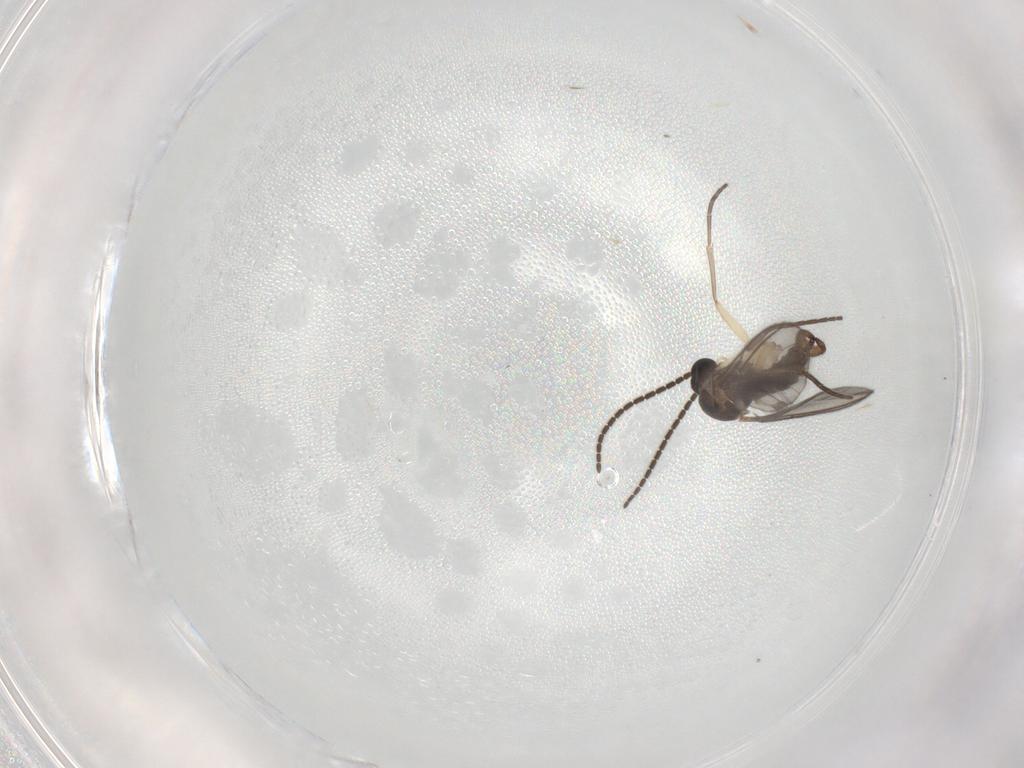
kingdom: Animalia
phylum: Arthropoda
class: Insecta
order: Diptera
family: Sciaridae
